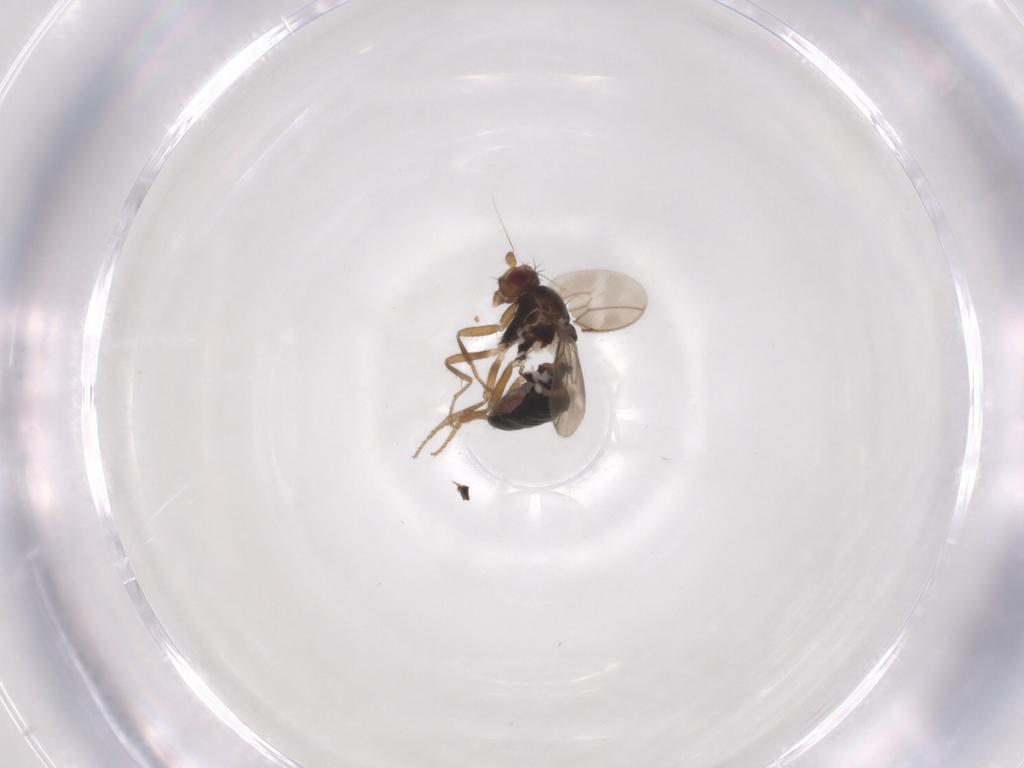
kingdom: Animalia
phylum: Arthropoda
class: Insecta
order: Diptera
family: Sphaeroceridae
